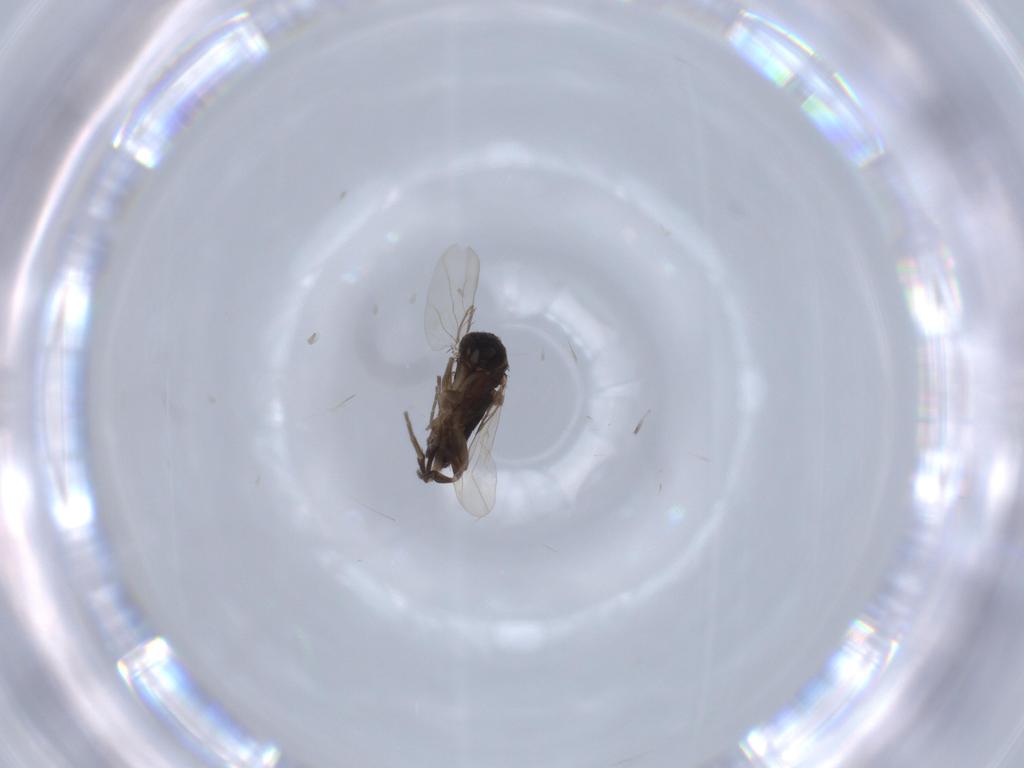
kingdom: Animalia
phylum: Arthropoda
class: Insecta
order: Diptera
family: Phoridae
